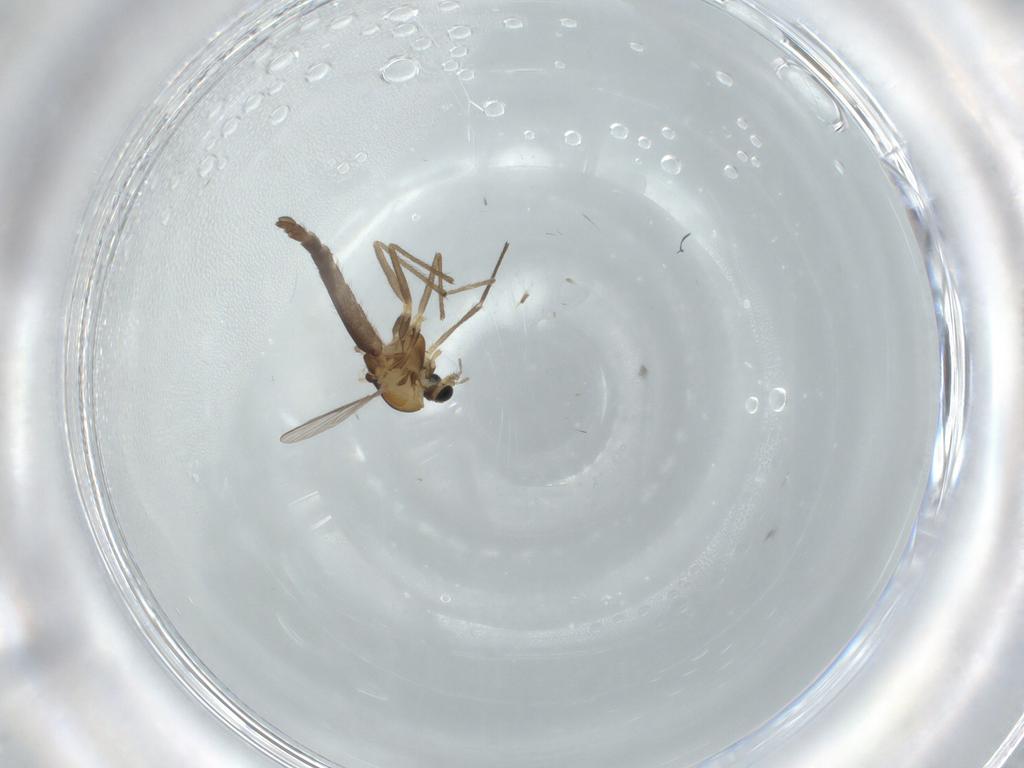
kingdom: Animalia
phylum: Arthropoda
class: Insecta
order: Diptera
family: Chironomidae
